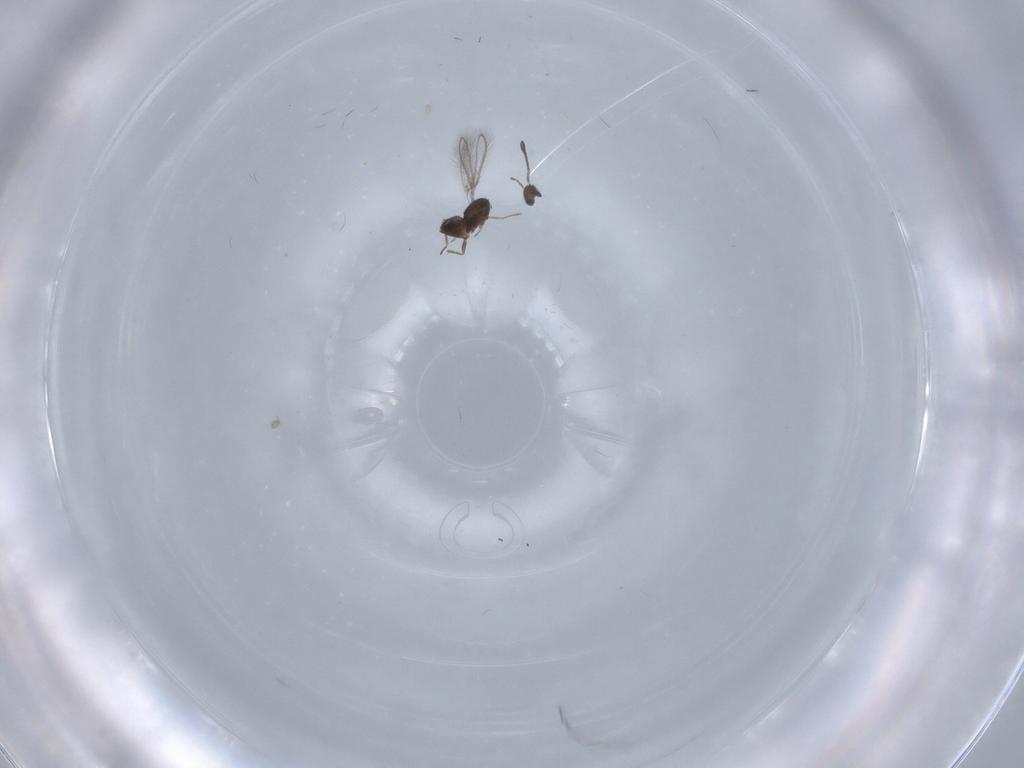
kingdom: Animalia
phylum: Arthropoda
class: Insecta
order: Hymenoptera
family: Mymaridae
